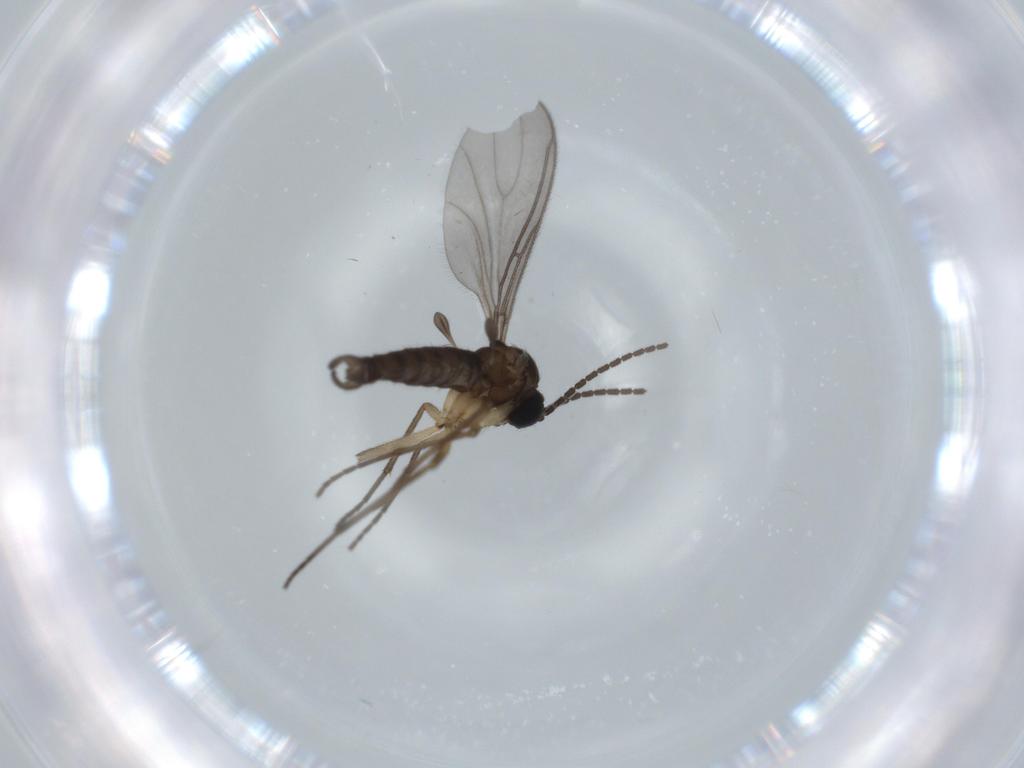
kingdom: Animalia
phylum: Arthropoda
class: Insecta
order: Diptera
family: Sciaridae
